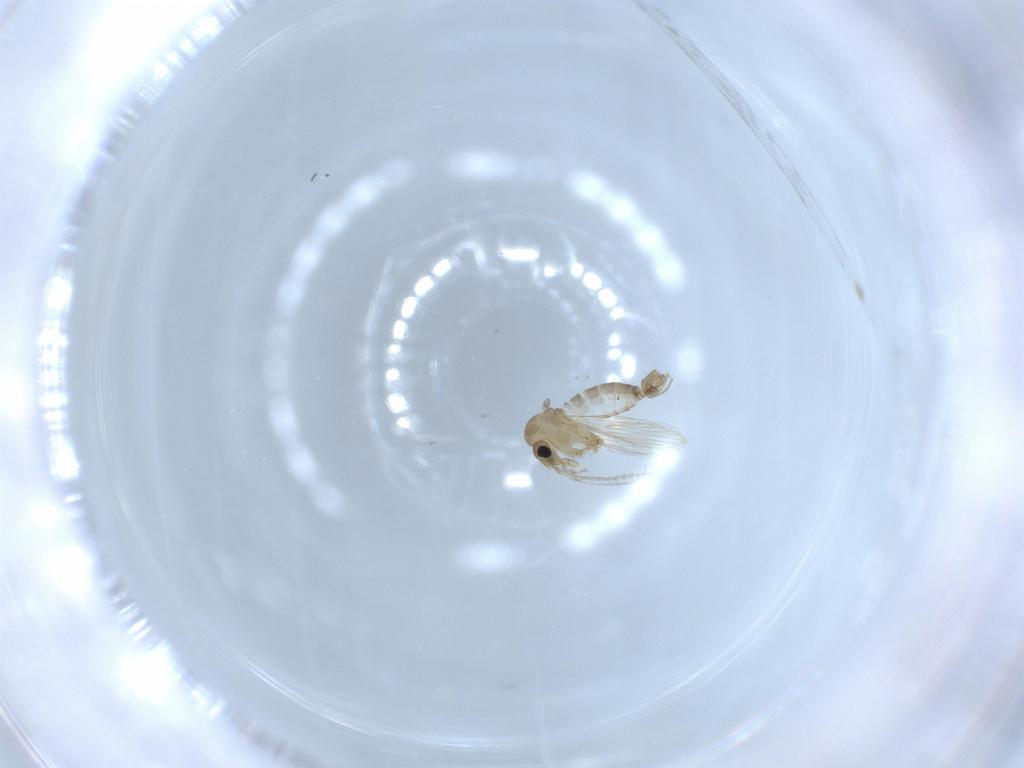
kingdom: Animalia
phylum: Arthropoda
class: Insecta
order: Diptera
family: Psychodidae
